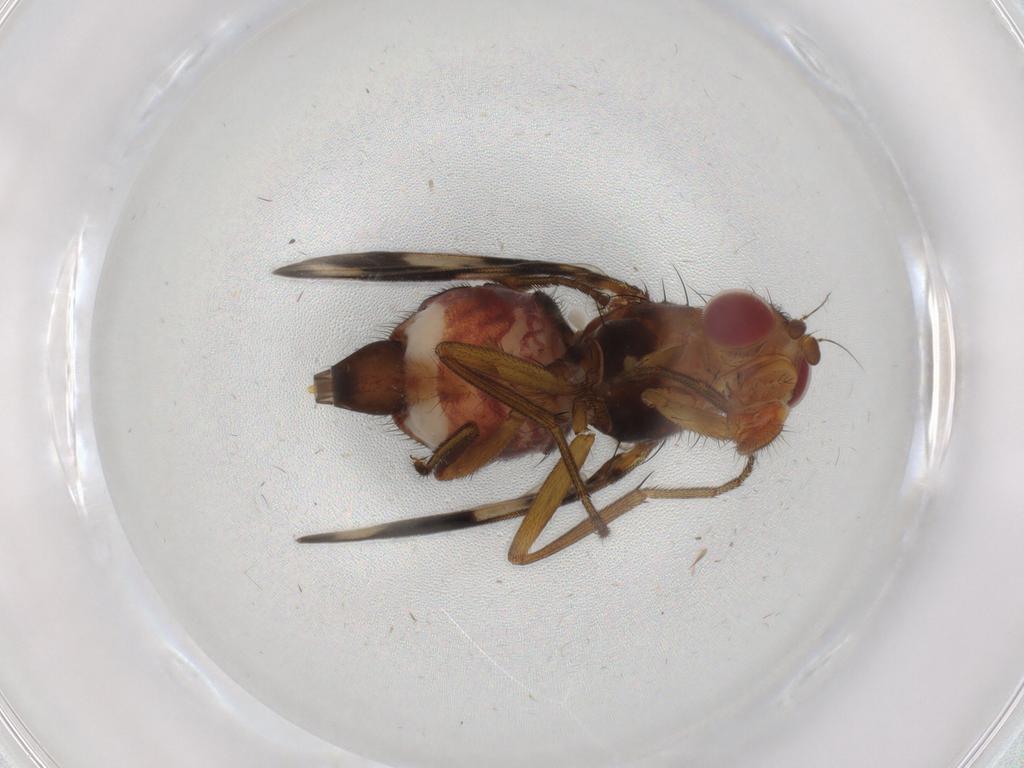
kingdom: Animalia
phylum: Arthropoda
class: Insecta
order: Diptera
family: Richardiidae
